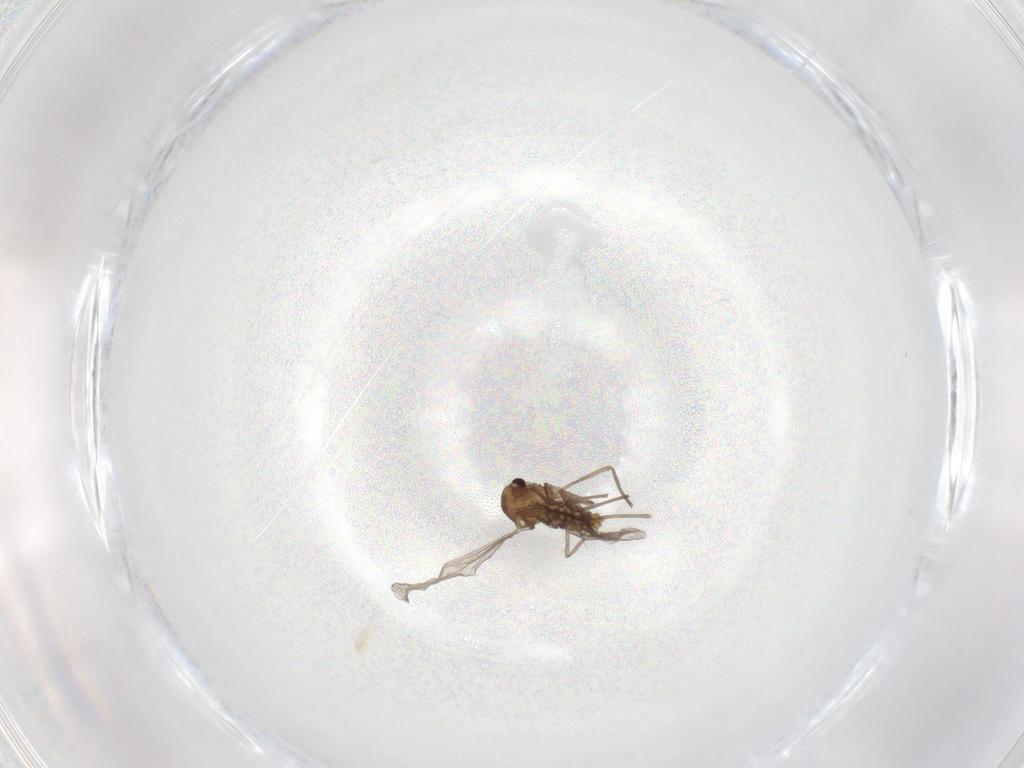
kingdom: Animalia
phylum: Arthropoda
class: Insecta
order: Diptera
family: Chironomidae
